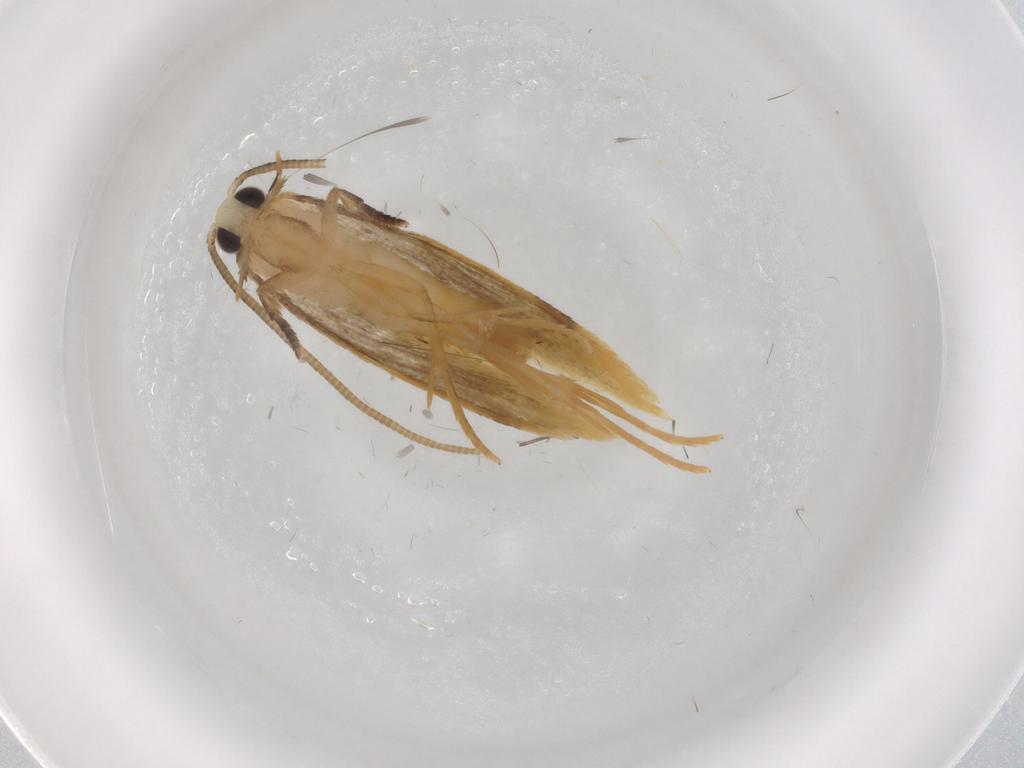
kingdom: Animalia
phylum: Arthropoda
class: Insecta
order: Lepidoptera
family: Tineidae
